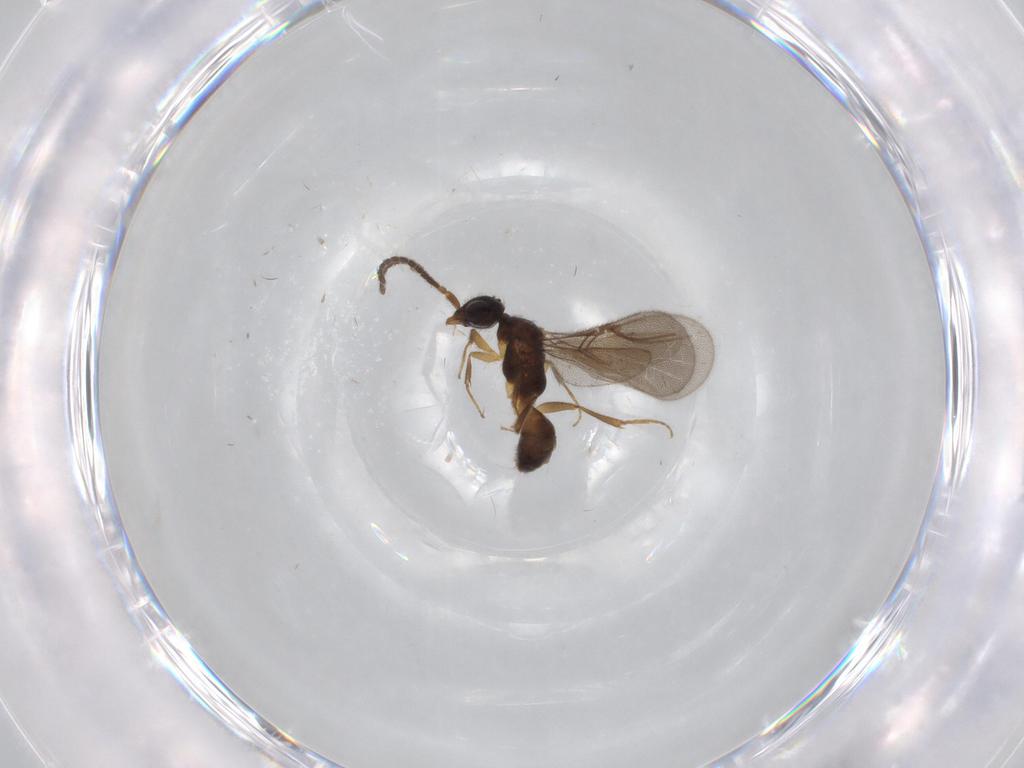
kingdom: Animalia
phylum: Arthropoda
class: Insecta
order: Hymenoptera
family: Bethylidae
